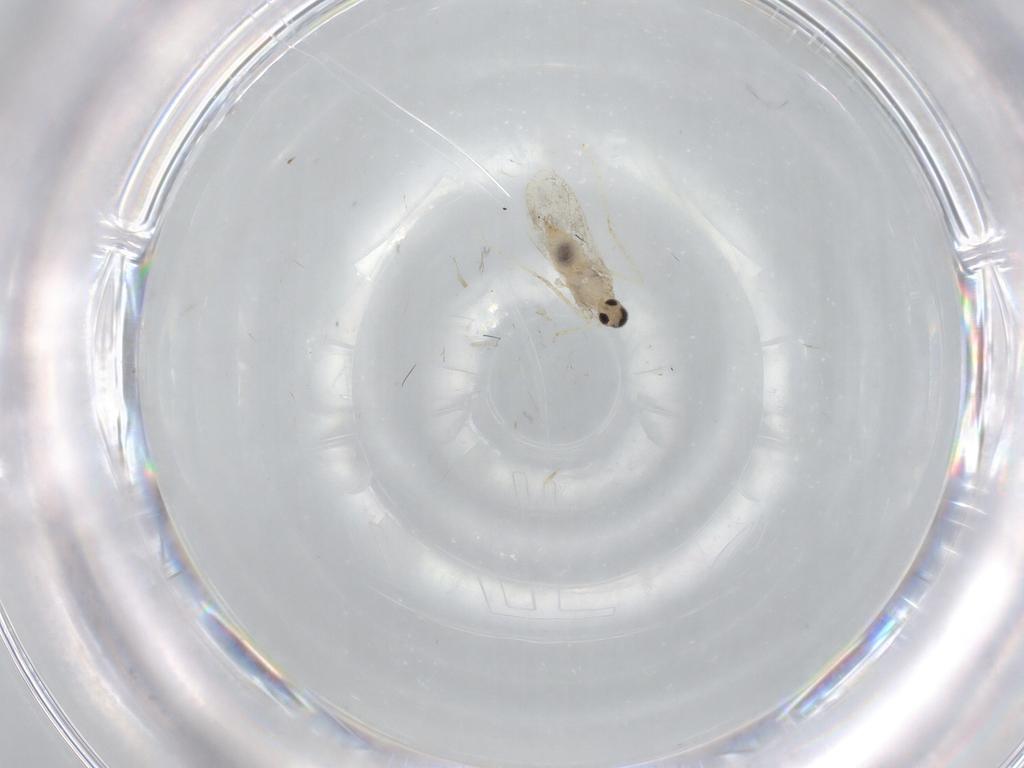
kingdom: Animalia
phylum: Arthropoda
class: Insecta
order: Diptera
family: Cecidomyiidae
